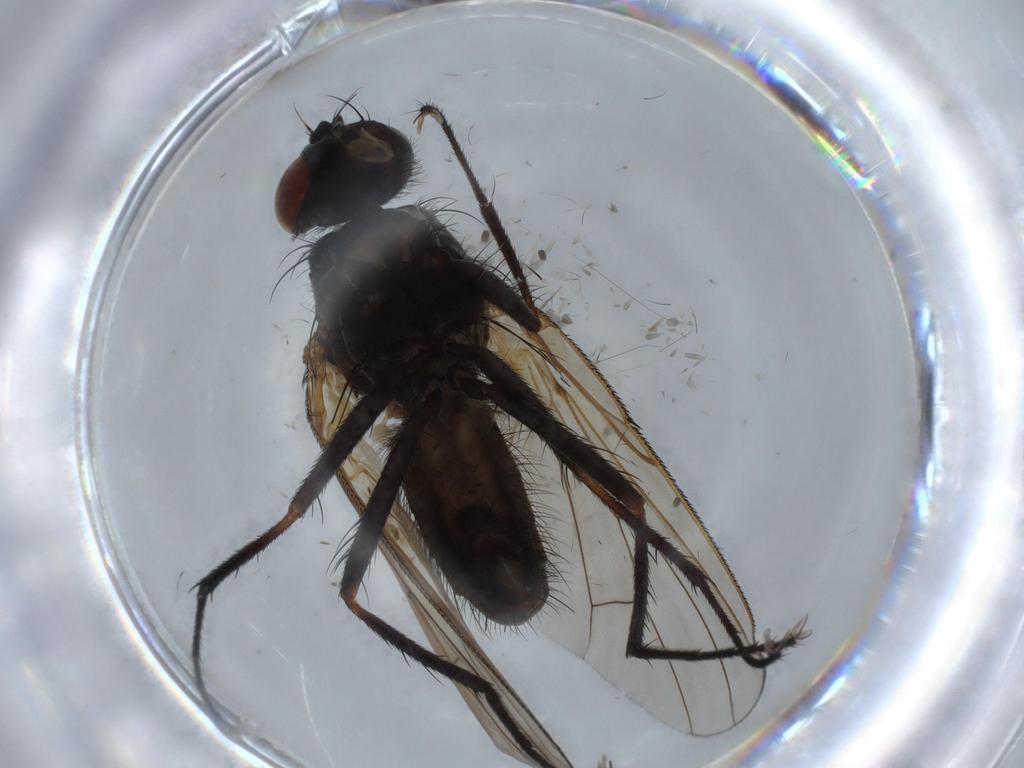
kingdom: Animalia
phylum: Arthropoda
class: Insecta
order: Diptera
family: Anthomyiidae
